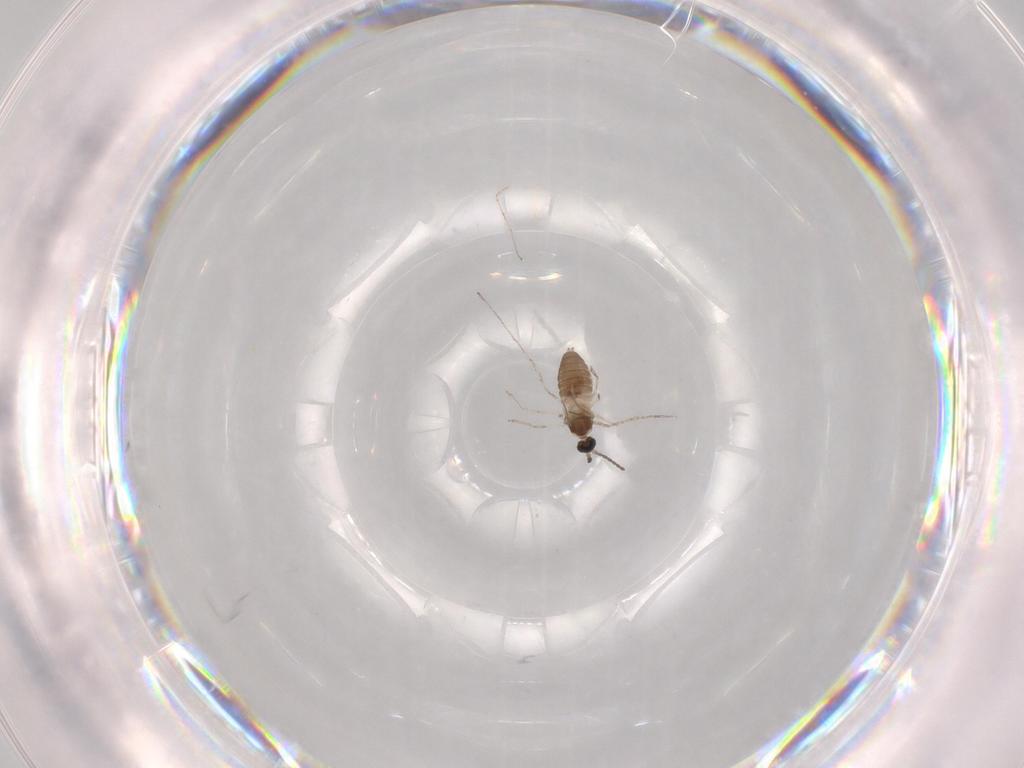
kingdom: Animalia
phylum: Arthropoda
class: Insecta
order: Diptera
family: Cecidomyiidae
